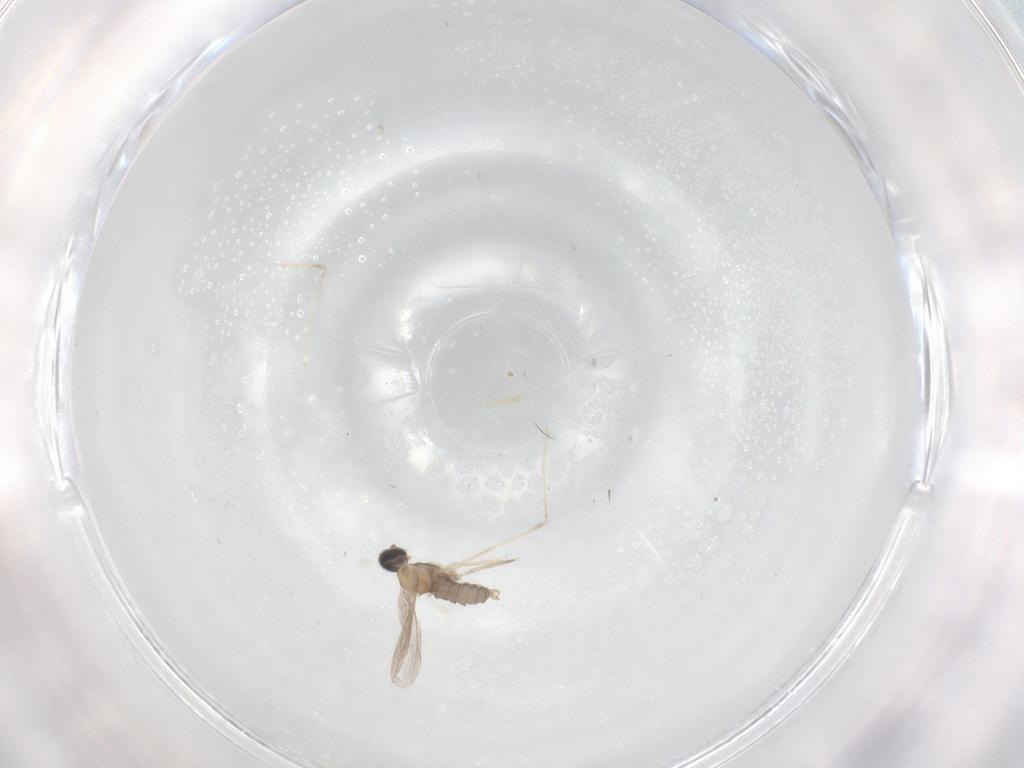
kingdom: Animalia
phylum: Arthropoda
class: Insecta
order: Diptera
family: Cecidomyiidae
